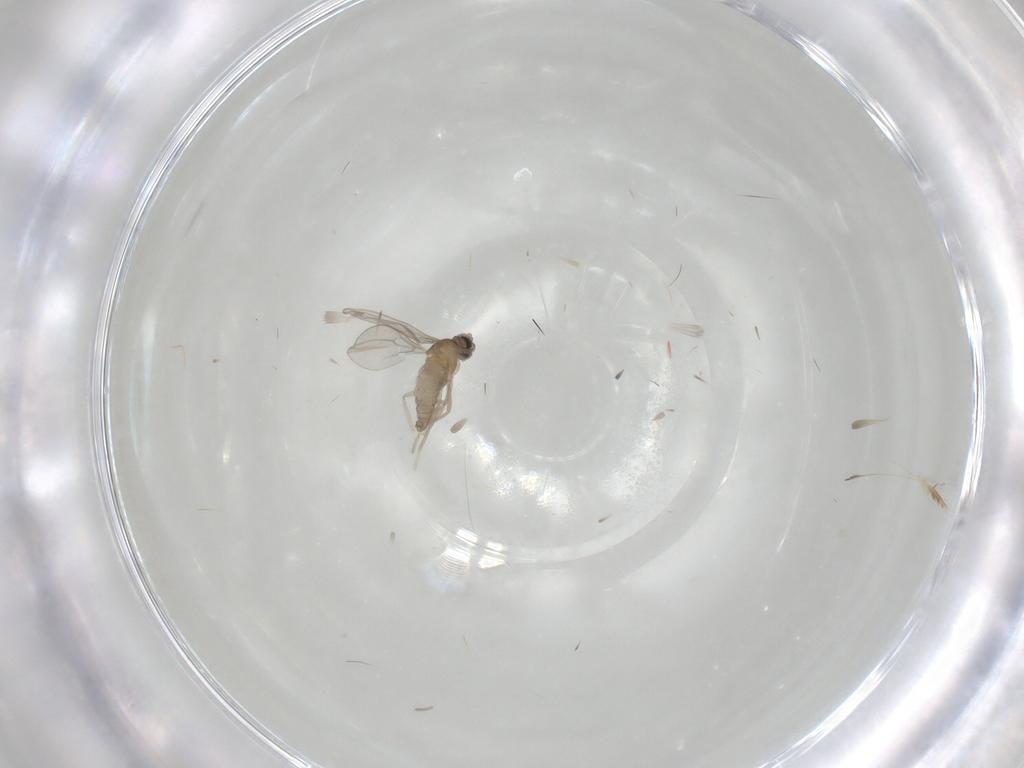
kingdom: Animalia
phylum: Arthropoda
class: Insecta
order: Diptera
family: Cecidomyiidae
